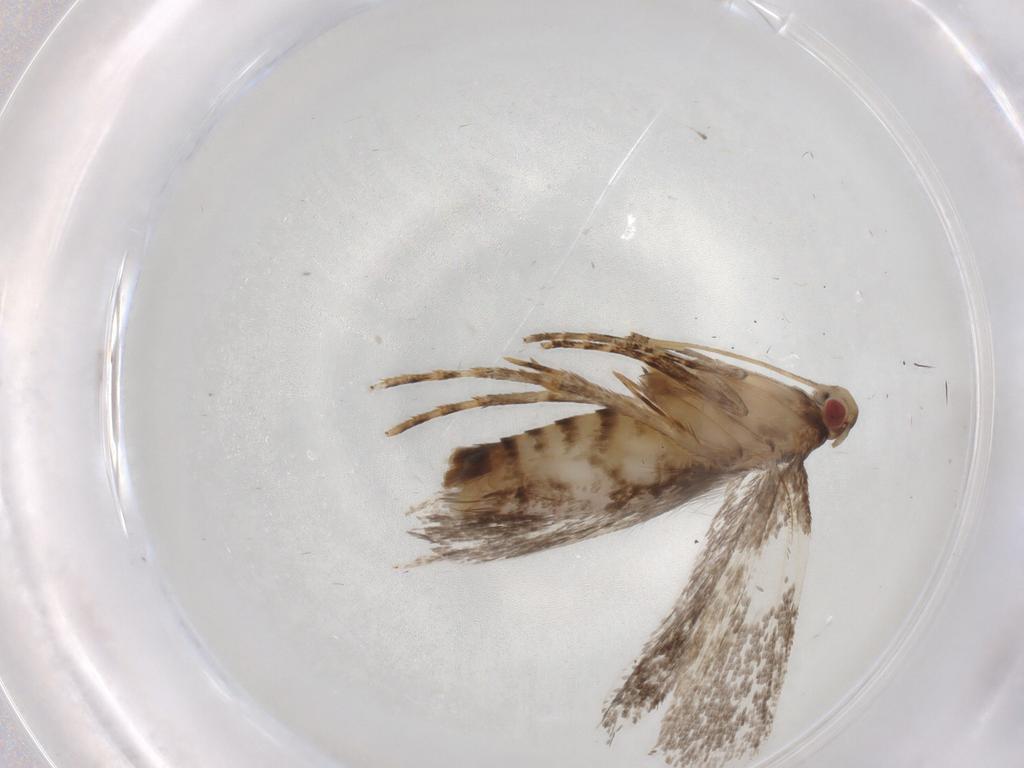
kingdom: Animalia
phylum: Arthropoda
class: Insecta
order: Lepidoptera
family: Gelechiidae
